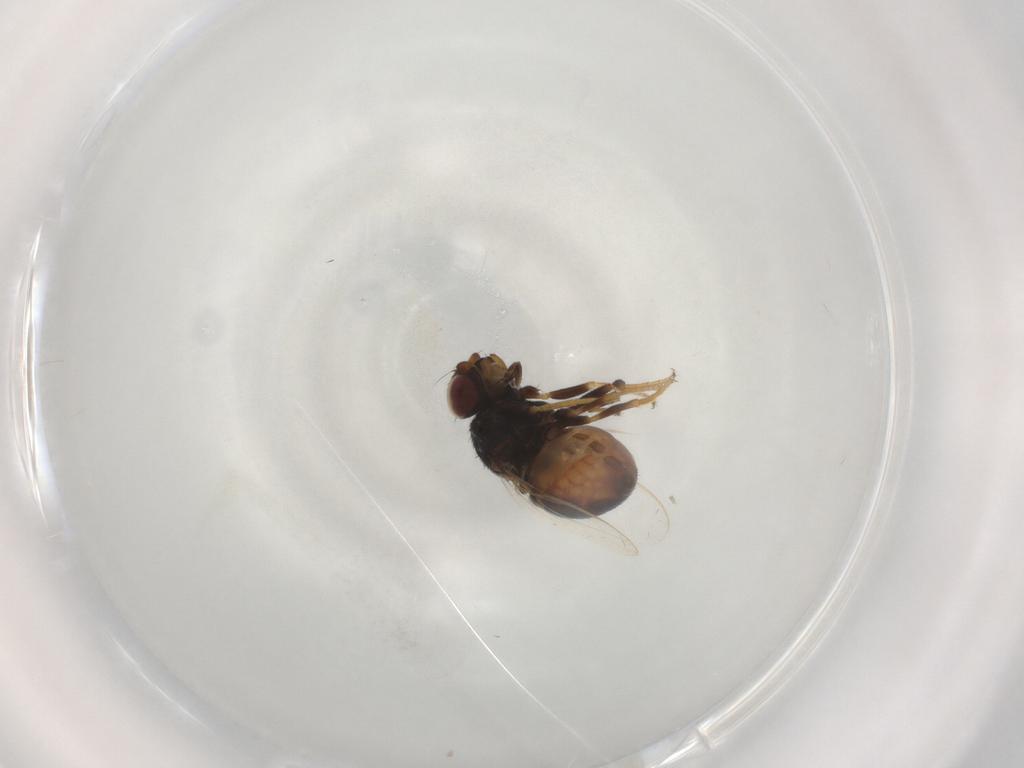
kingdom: Animalia
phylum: Arthropoda
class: Insecta
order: Diptera
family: Chloropidae
